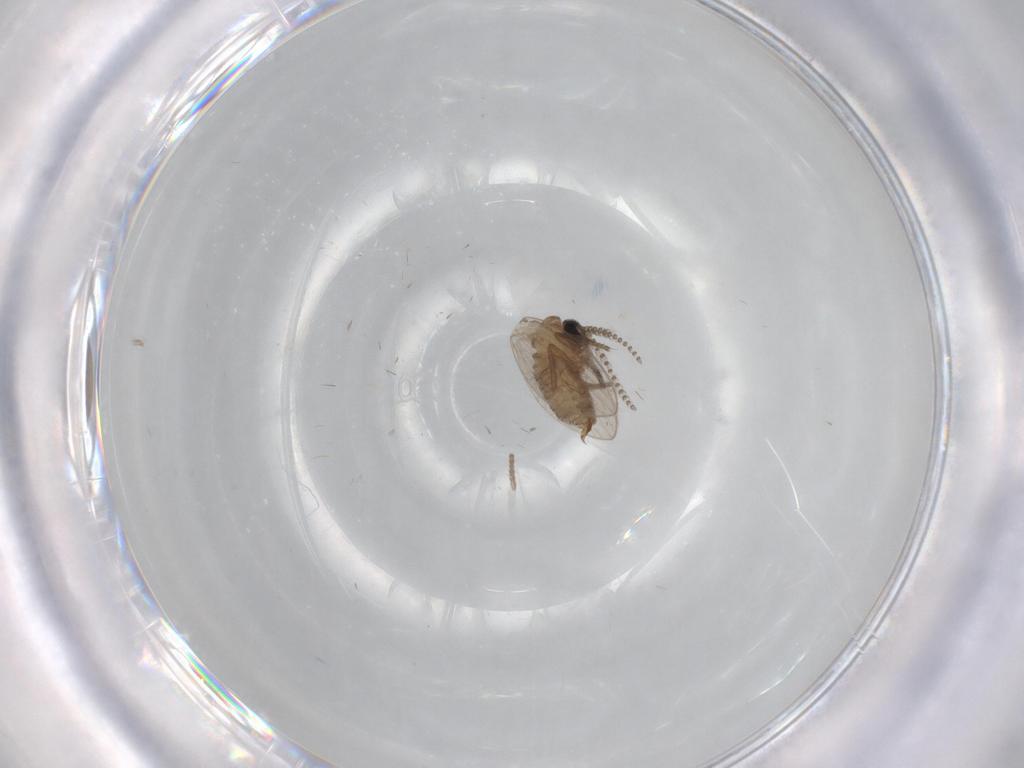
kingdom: Animalia
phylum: Arthropoda
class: Insecta
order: Diptera
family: Psychodidae
